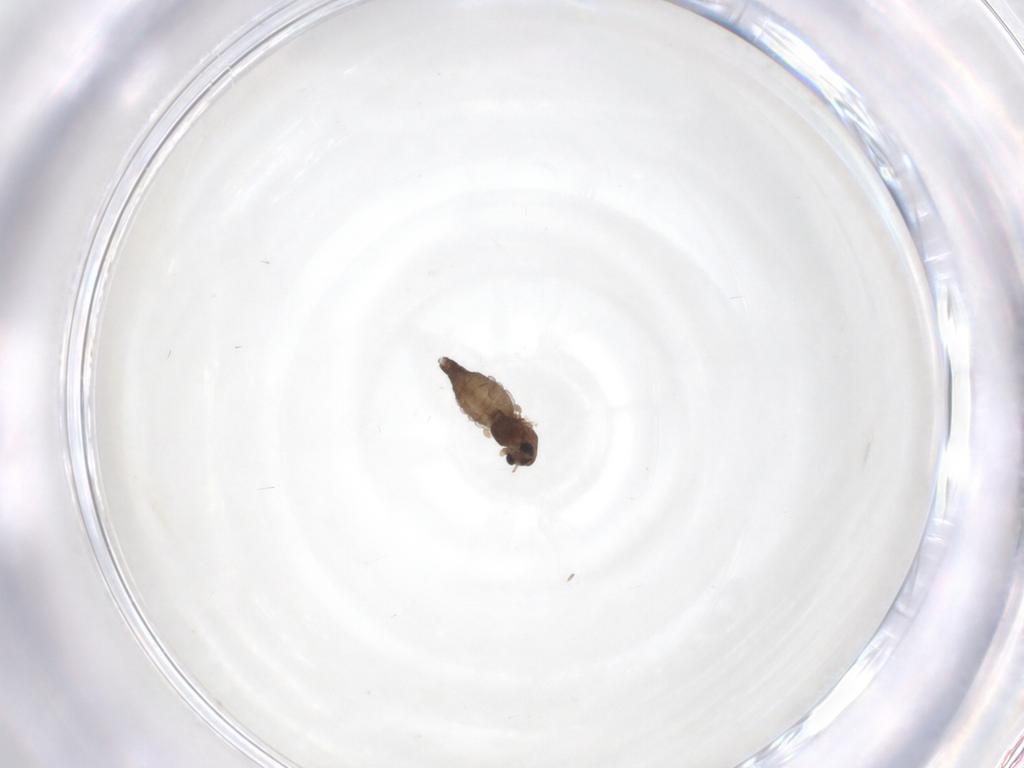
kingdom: Animalia
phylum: Arthropoda
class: Insecta
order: Diptera
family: Chironomidae
